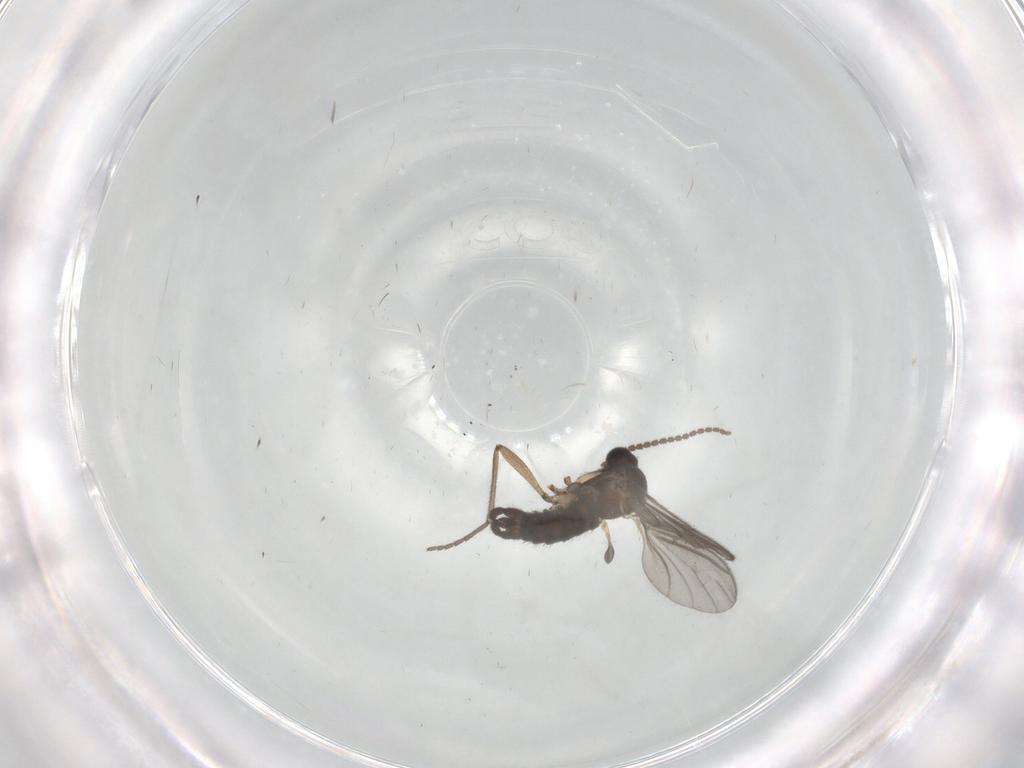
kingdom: Animalia
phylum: Arthropoda
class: Insecta
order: Diptera
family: Sciaridae
